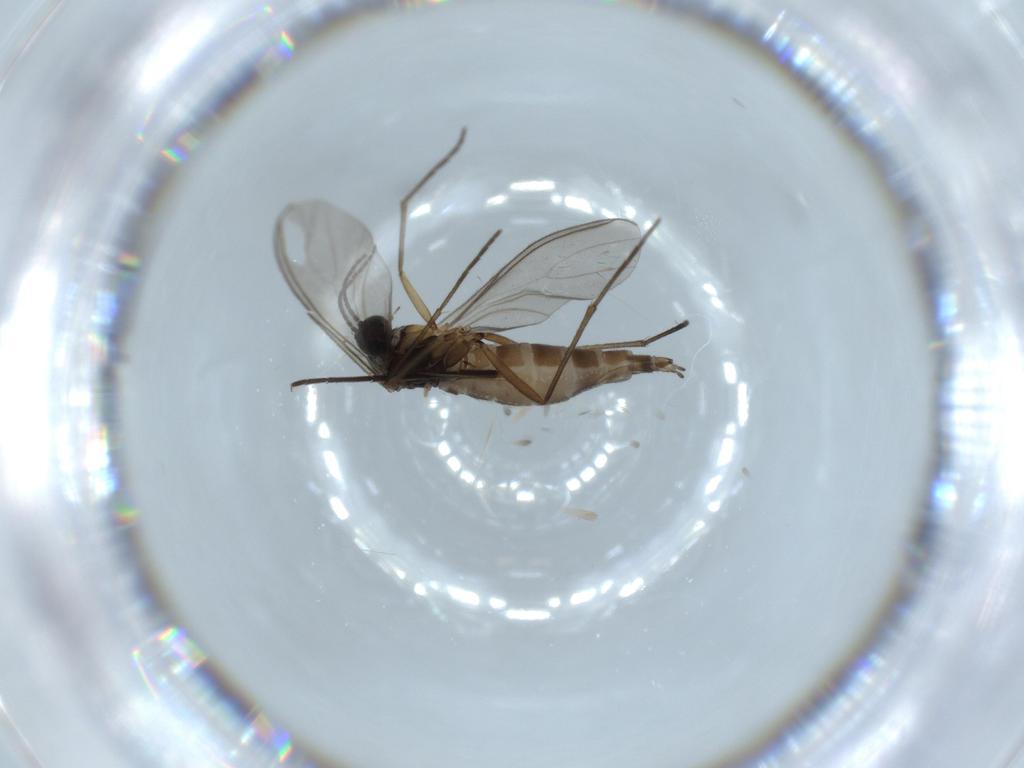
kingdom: Animalia
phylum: Arthropoda
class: Insecta
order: Diptera
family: Sciaridae
